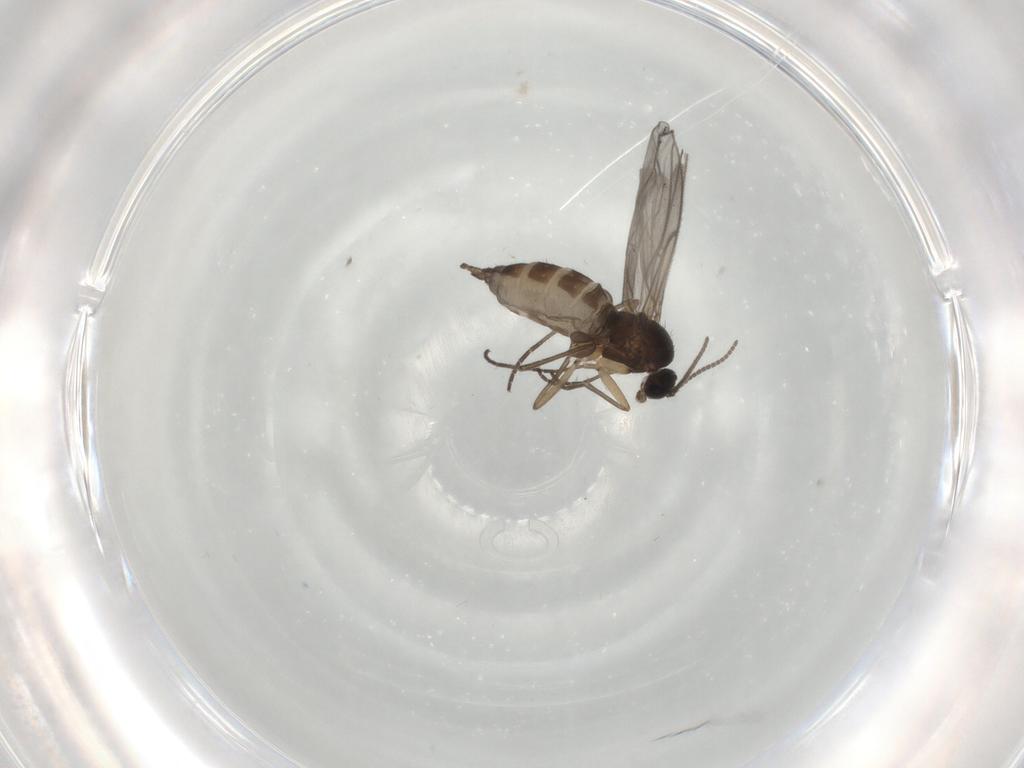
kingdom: Animalia
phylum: Arthropoda
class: Insecta
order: Diptera
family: Sciaridae
